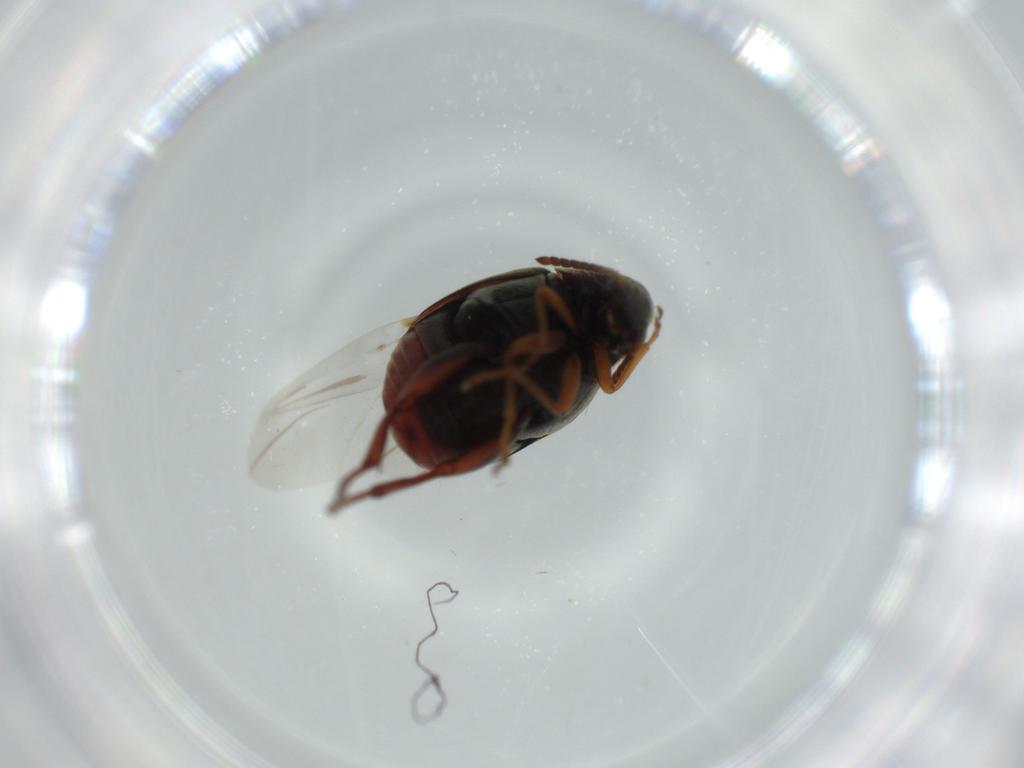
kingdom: Animalia
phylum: Arthropoda
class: Insecta
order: Coleoptera
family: Chrysomelidae
